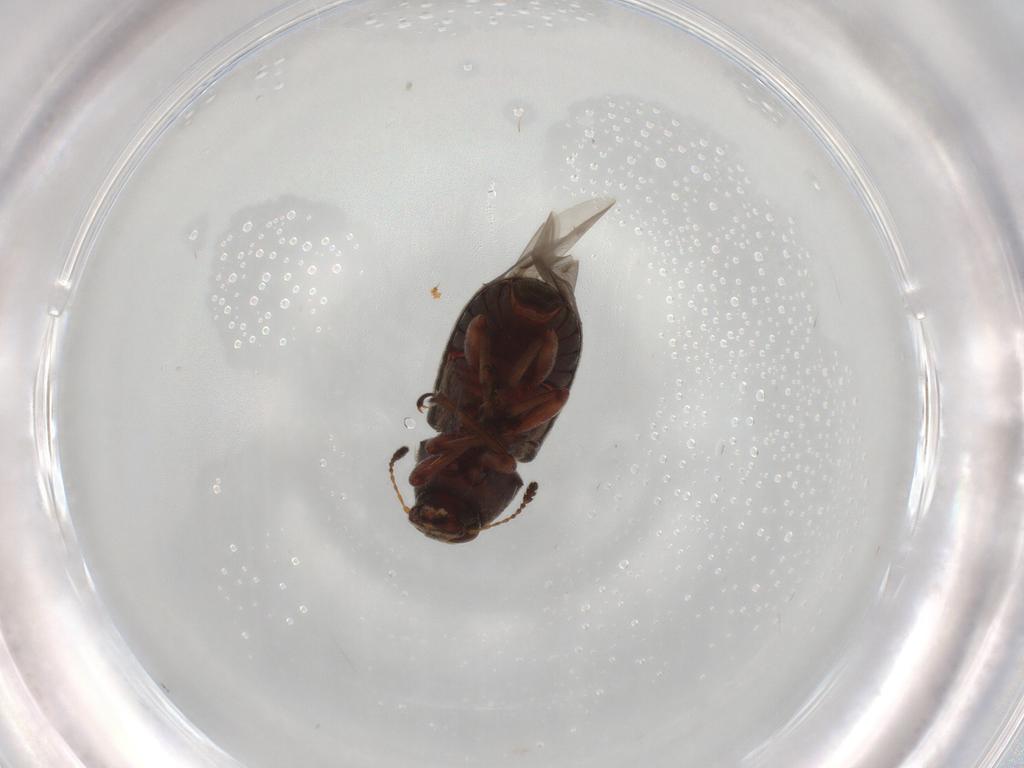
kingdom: Animalia
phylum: Arthropoda
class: Insecta
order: Coleoptera
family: Anthribidae
